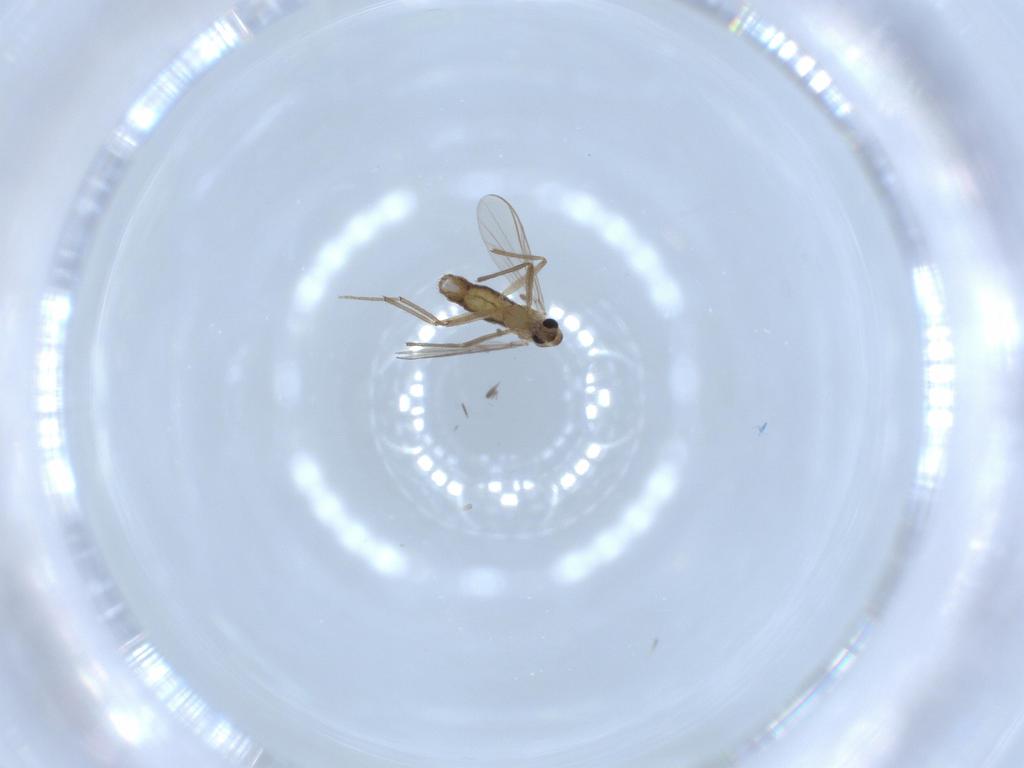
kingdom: Animalia
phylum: Arthropoda
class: Insecta
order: Diptera
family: Chironomidae
